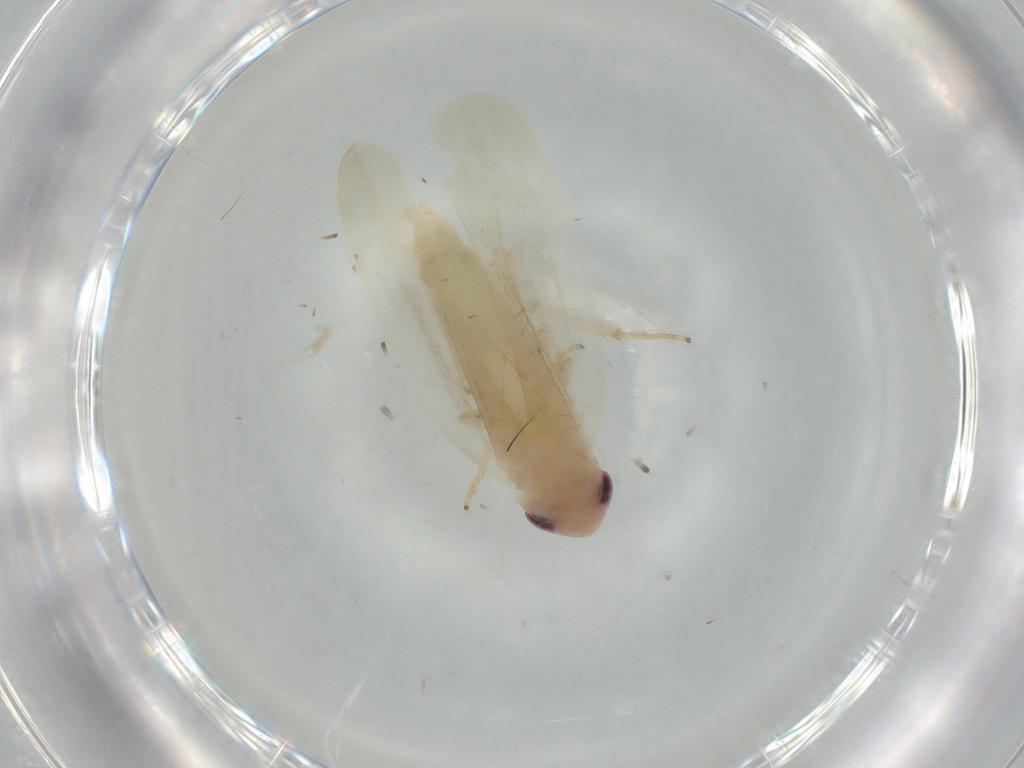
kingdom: Animalia
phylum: Arthropoda
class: Insecta
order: Hemiptera
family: Cicadellidae
